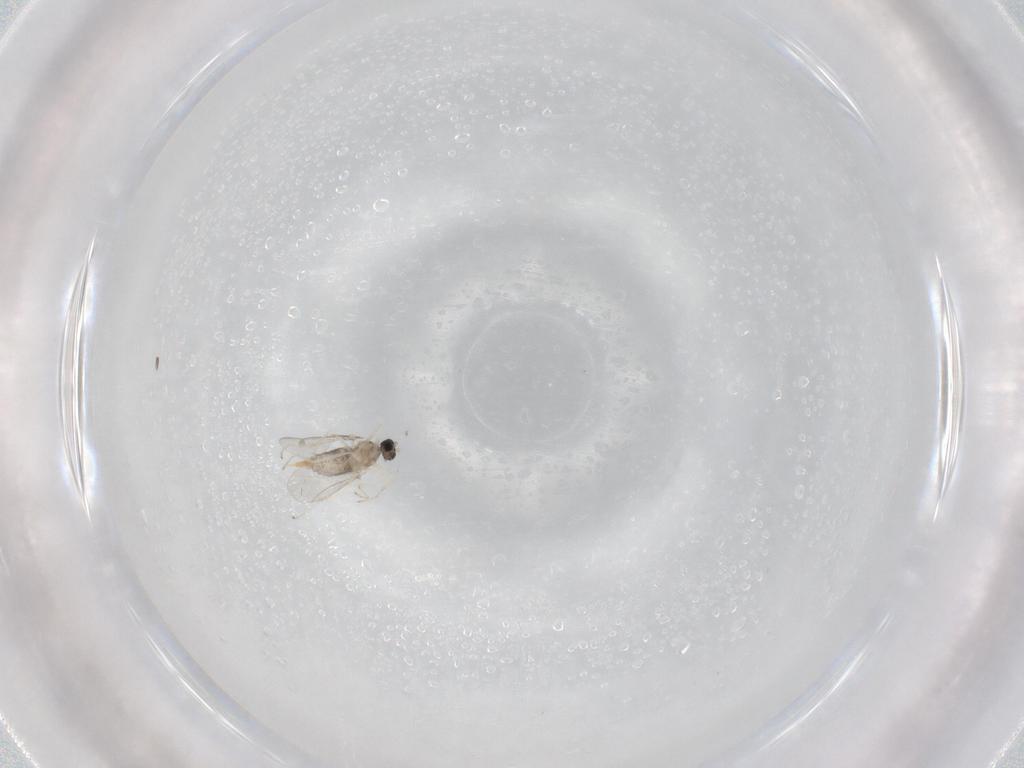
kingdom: Animalia
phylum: Arthropoda
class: Insecta
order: Diptera
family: Cecidomyiidae
